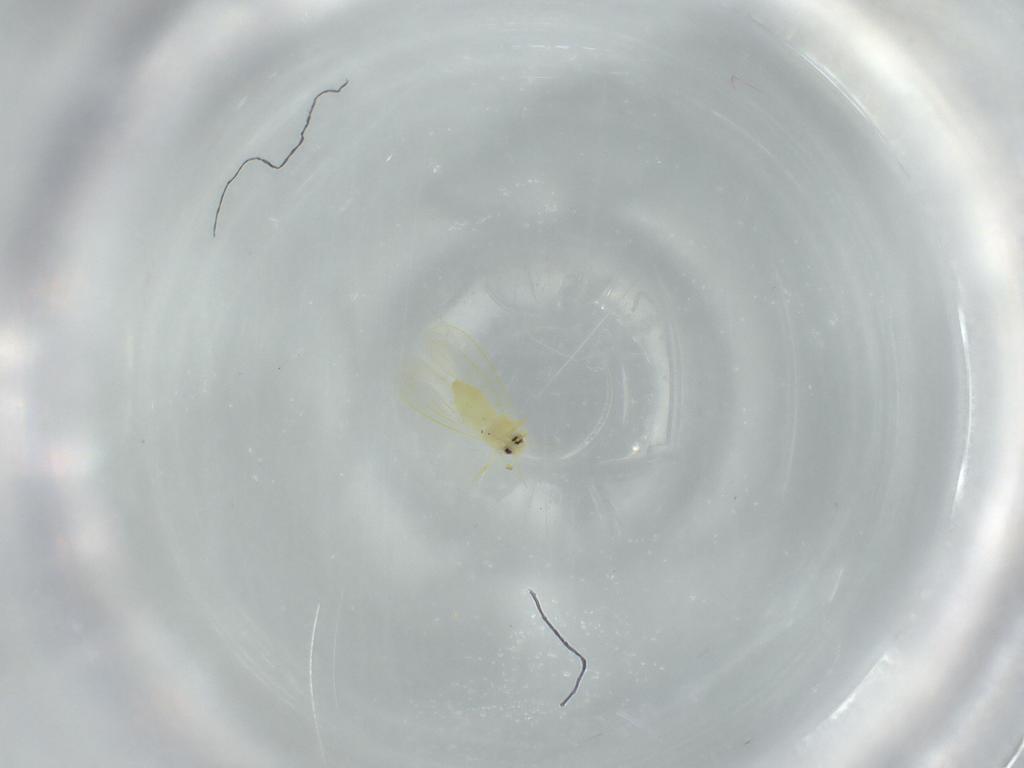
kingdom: Animalia
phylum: Arthropoda
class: Insecta
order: Hemiptera
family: Aleyrodidae
